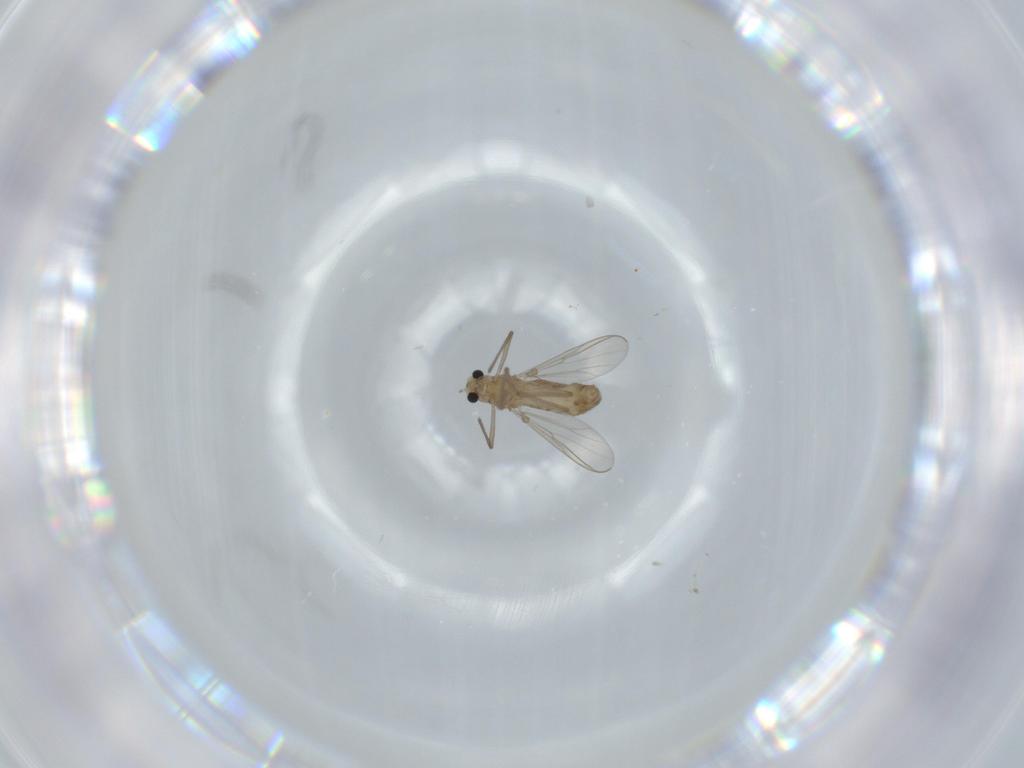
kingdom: Animalia
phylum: Arthropoda
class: Insecta
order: Diptera
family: Chironomidae
